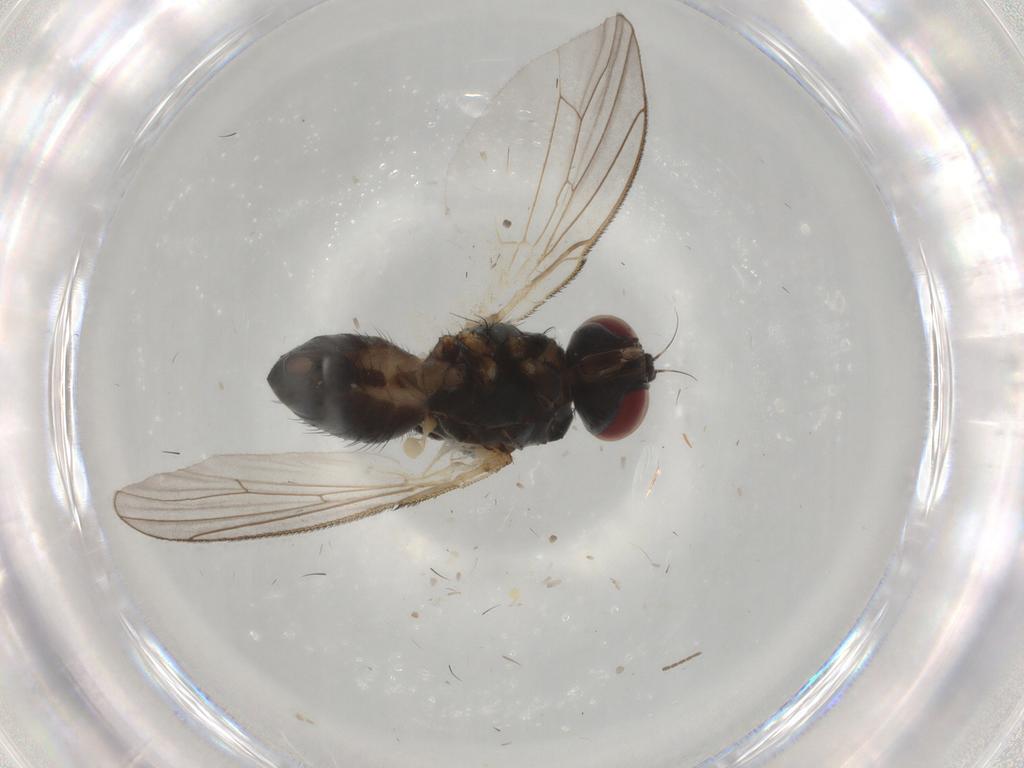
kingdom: Animalia
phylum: Arthropoda
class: Insecta
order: Diptera
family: Muscidae
